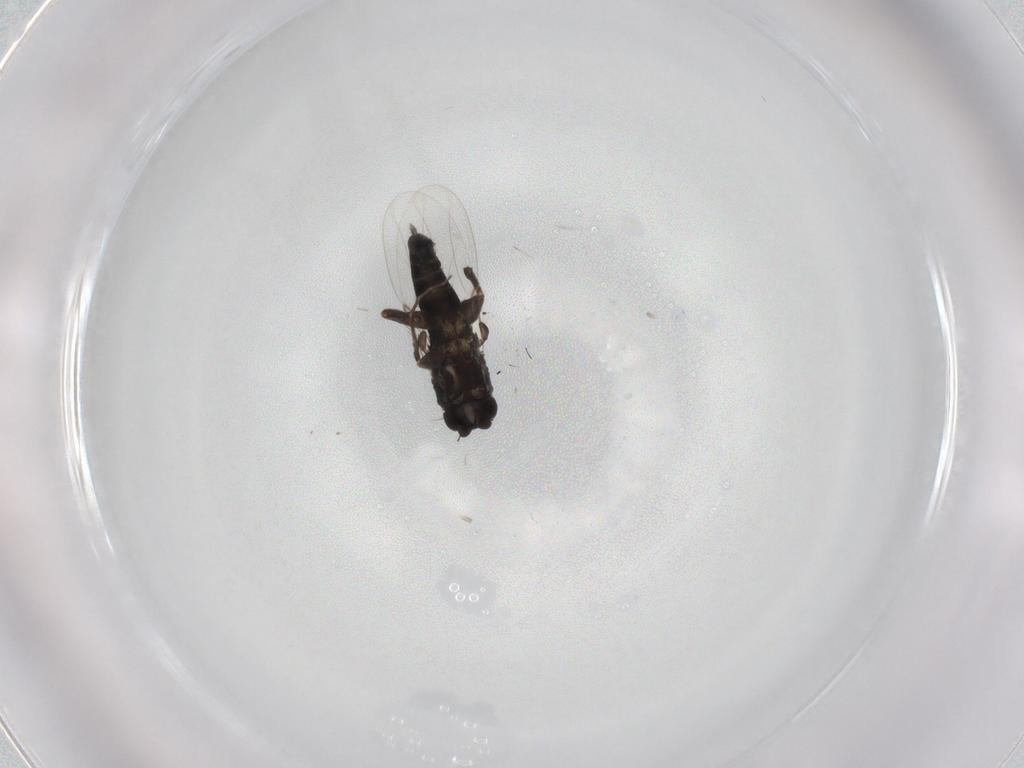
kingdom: Animalia
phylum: Arthropoda
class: Insecta
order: Diptera
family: Phoridae
